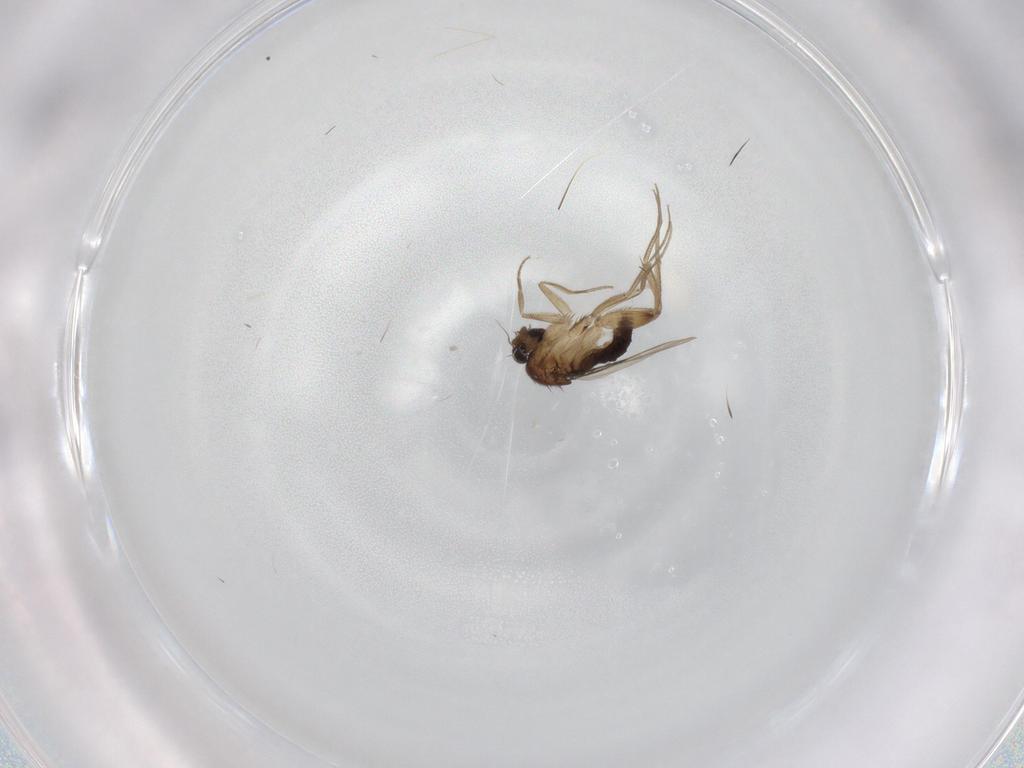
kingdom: Animalia
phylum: Arthropoda
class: Insecta
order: Diptera
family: Phoridae
